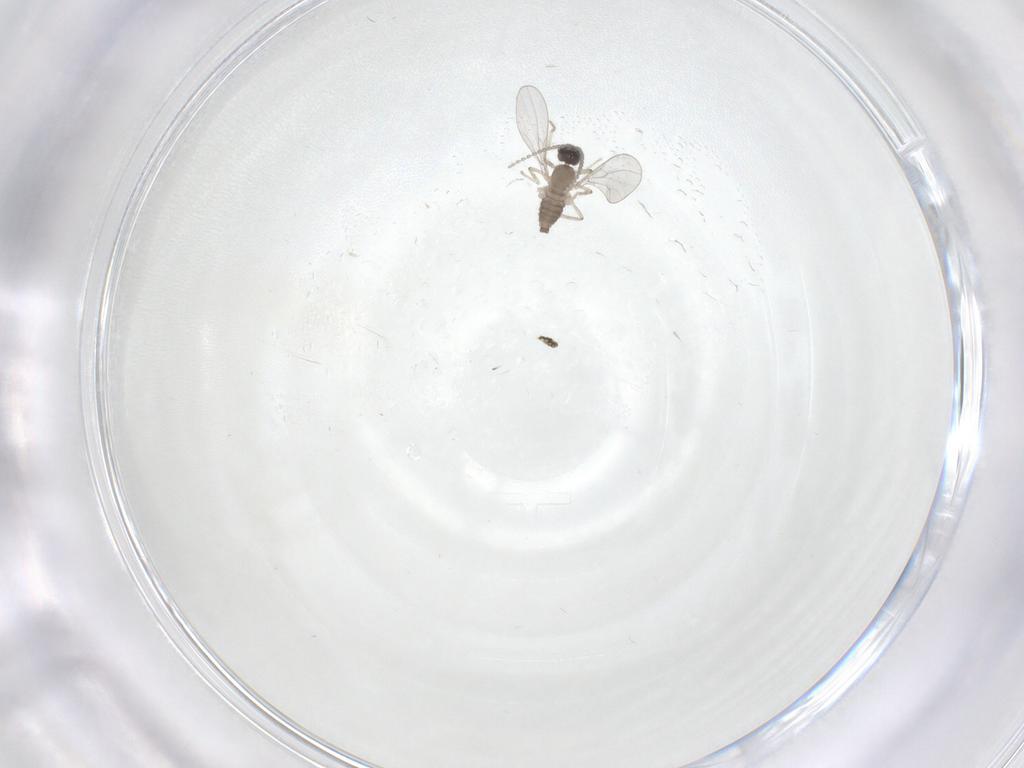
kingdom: Animalia
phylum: Arthropoda
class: Insecta
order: Diptera
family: Cecidomyiidae
